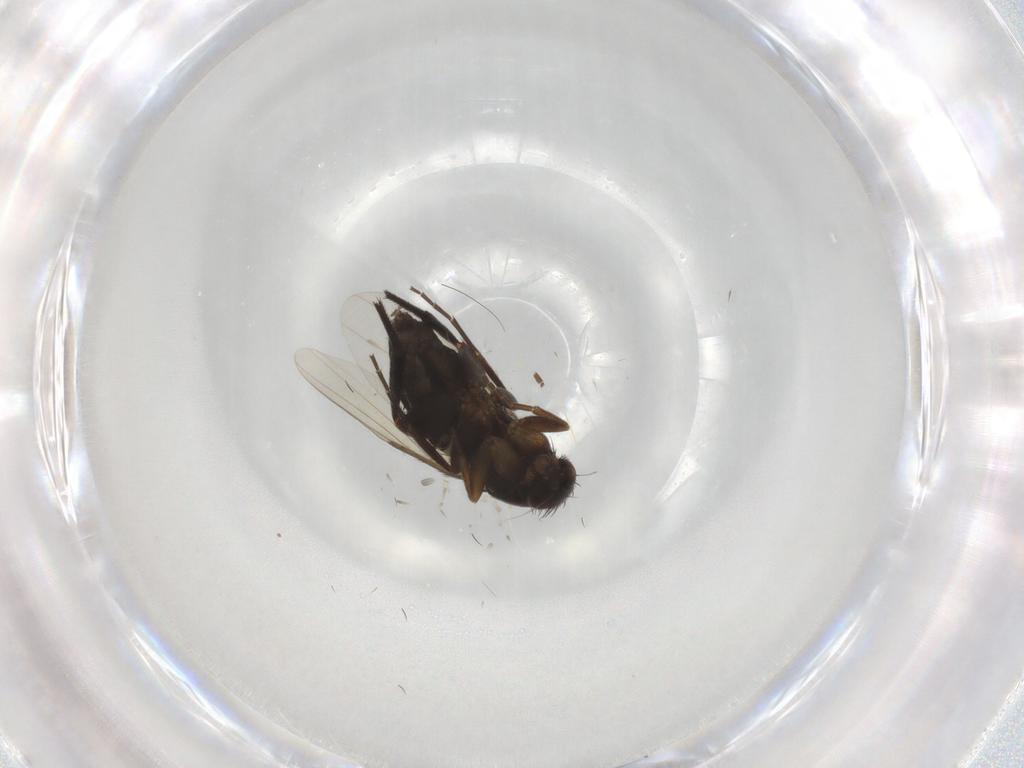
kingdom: Animalia
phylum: Arthropoda
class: Insecta
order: Diptera
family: Phoridae
